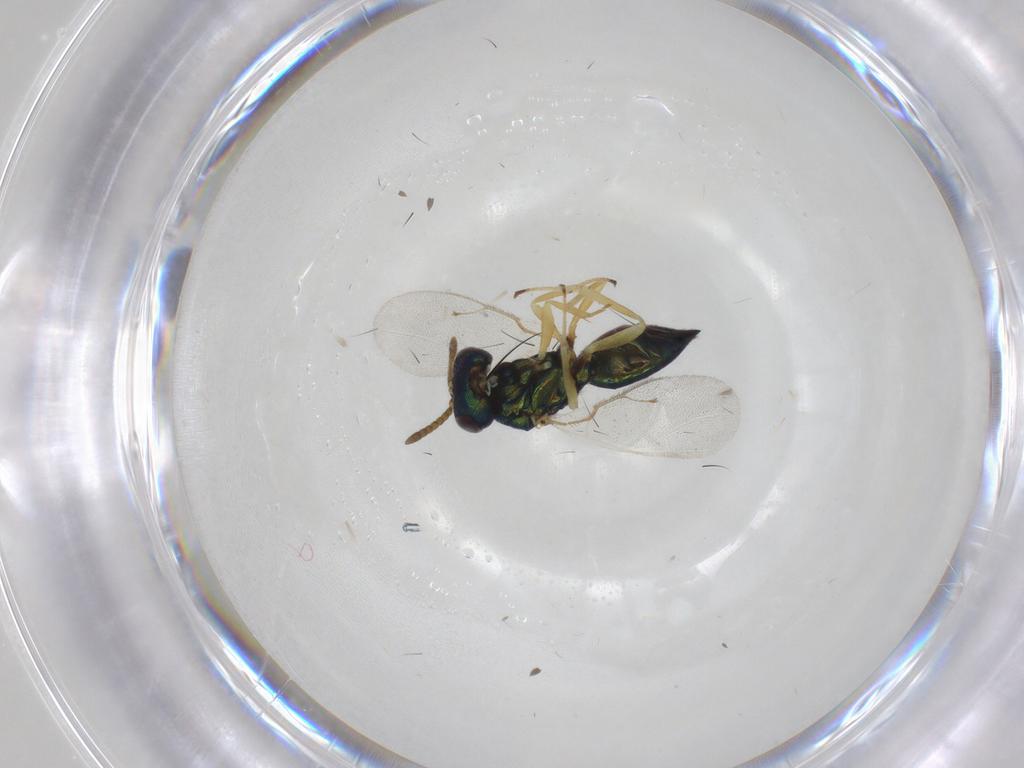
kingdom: Animalia
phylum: Arthropoda
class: Insecta
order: Hymenoptera
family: Pteromalidae
